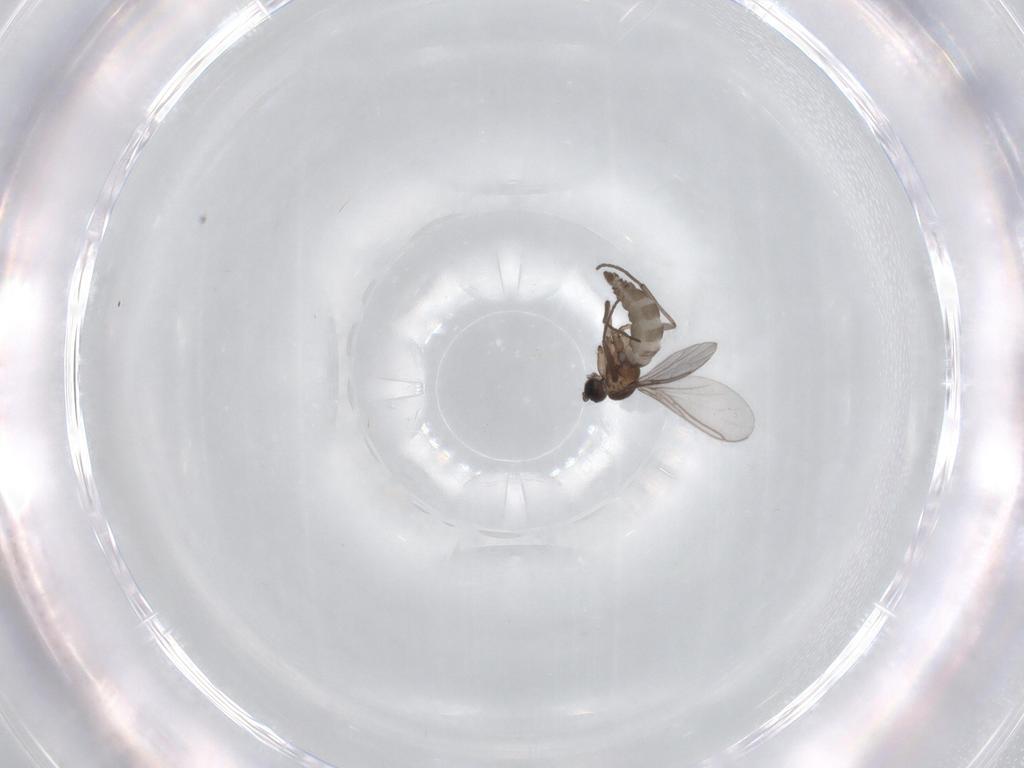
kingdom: Animalia
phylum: Arthropoda
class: Insecta
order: Diptera
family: Sciaridae
